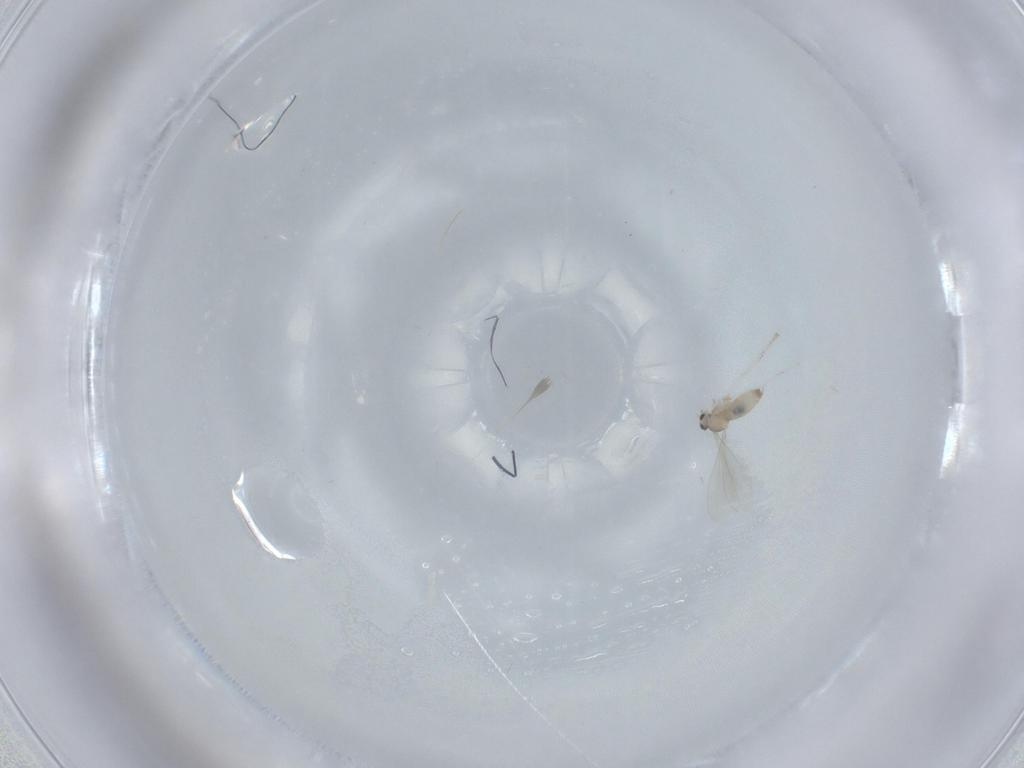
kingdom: Animalia
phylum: Arthropoda
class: Insecta
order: Diptera
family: Cecidomyiidae
